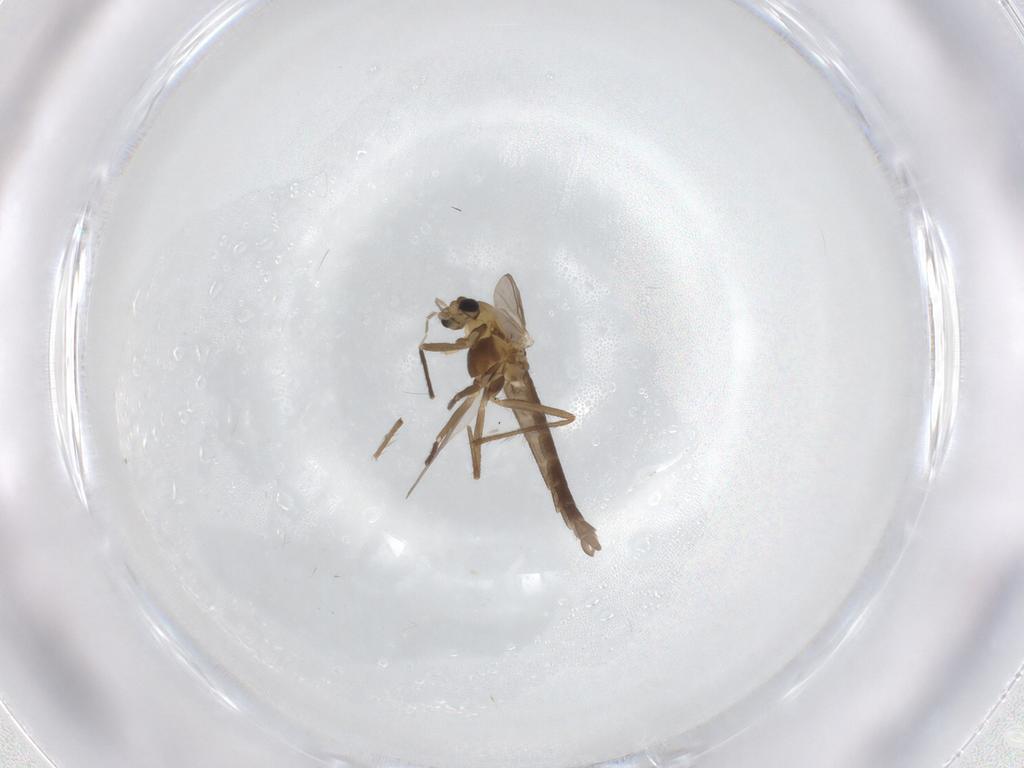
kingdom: Animalia
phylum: Arthropoda
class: Insecta
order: Diptera
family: Chironomidae
